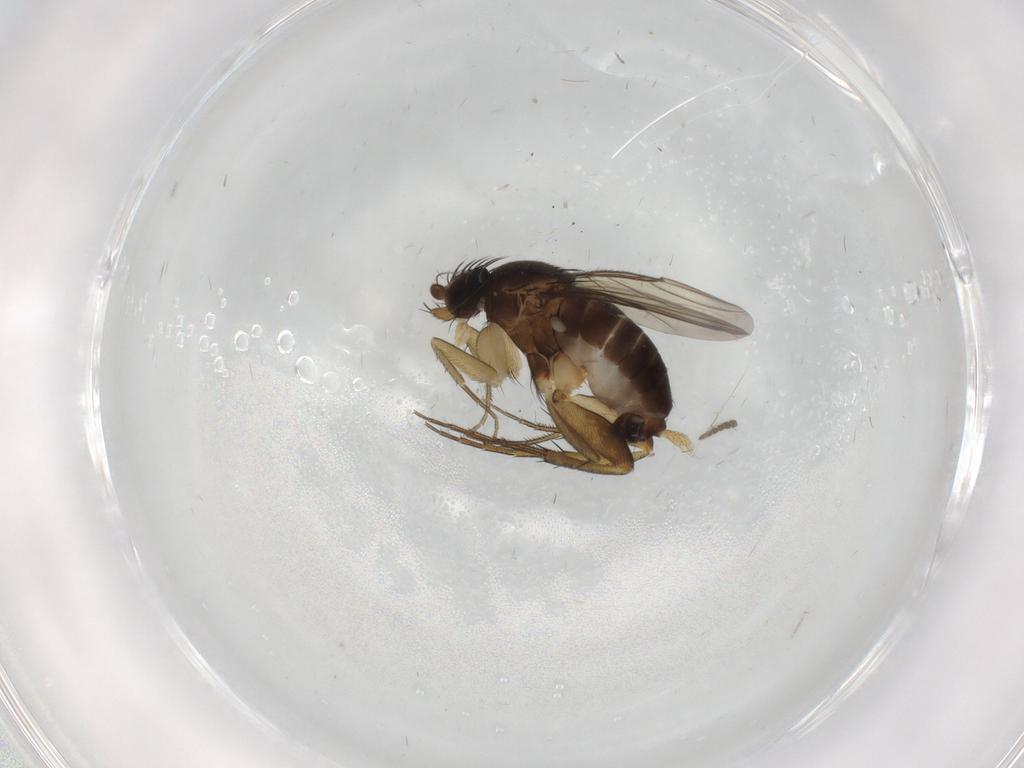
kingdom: Animalia
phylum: Arthropoda
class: Insecta
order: Diptera
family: Phoridae
